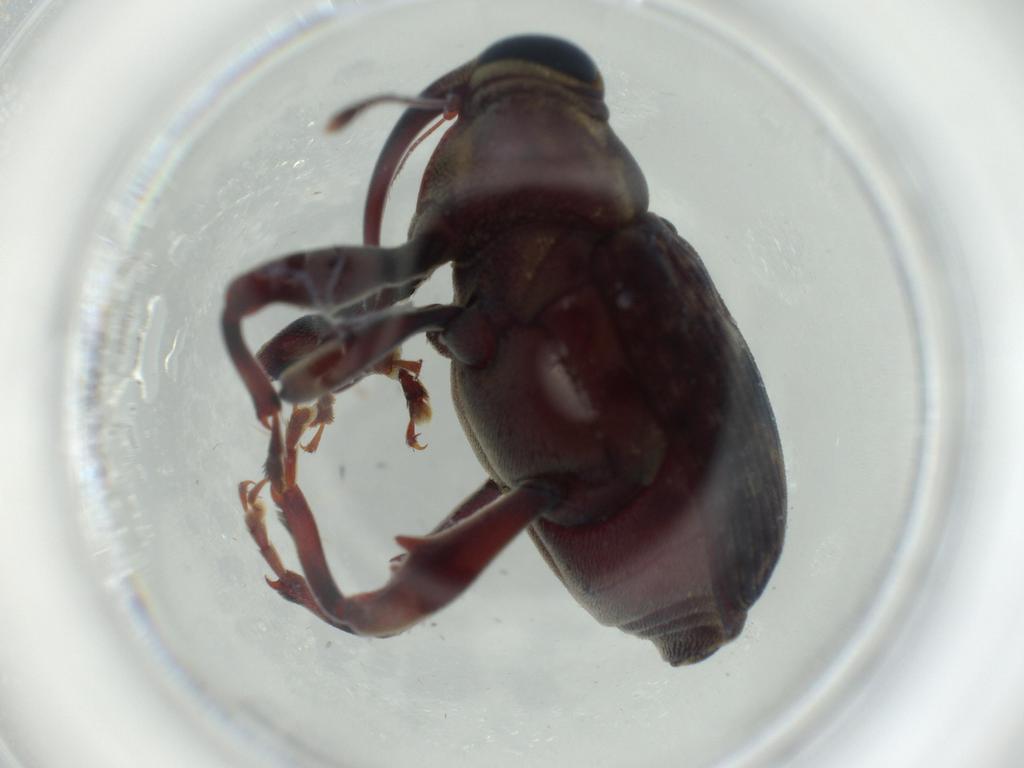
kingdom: Animalia
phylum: Arthropoda
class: Insecta
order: Coleoptera
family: Curculionidae
